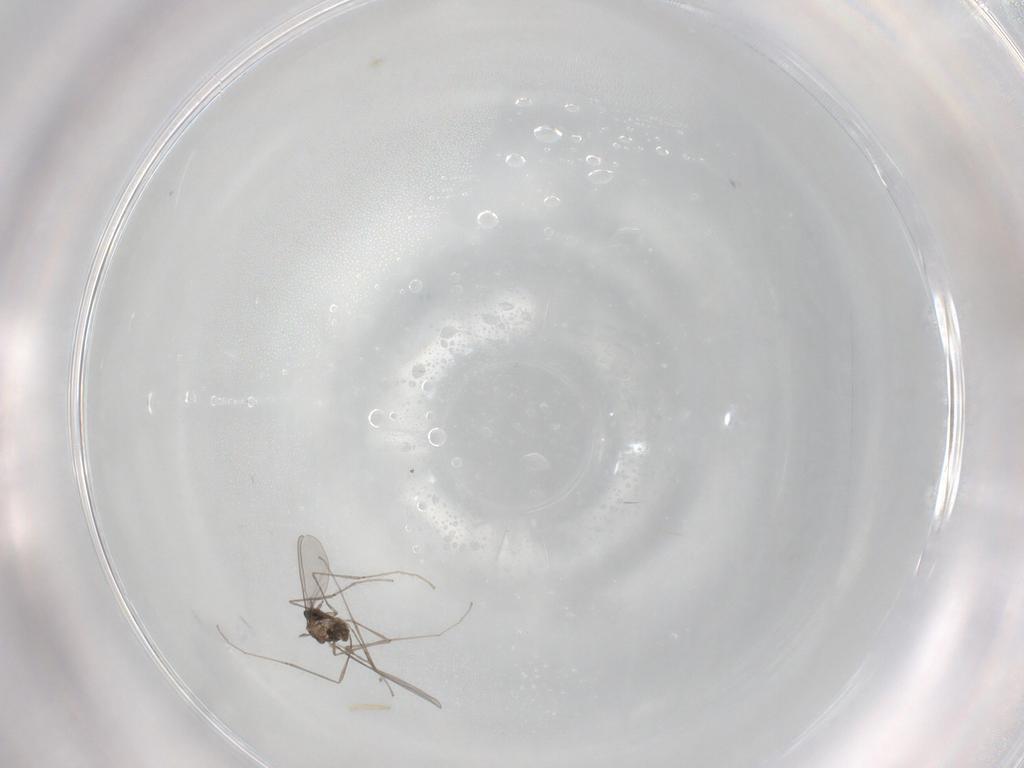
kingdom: Animalia
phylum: Arthropoda
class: Insecta
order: Diptera
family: Cecidomyiidae
